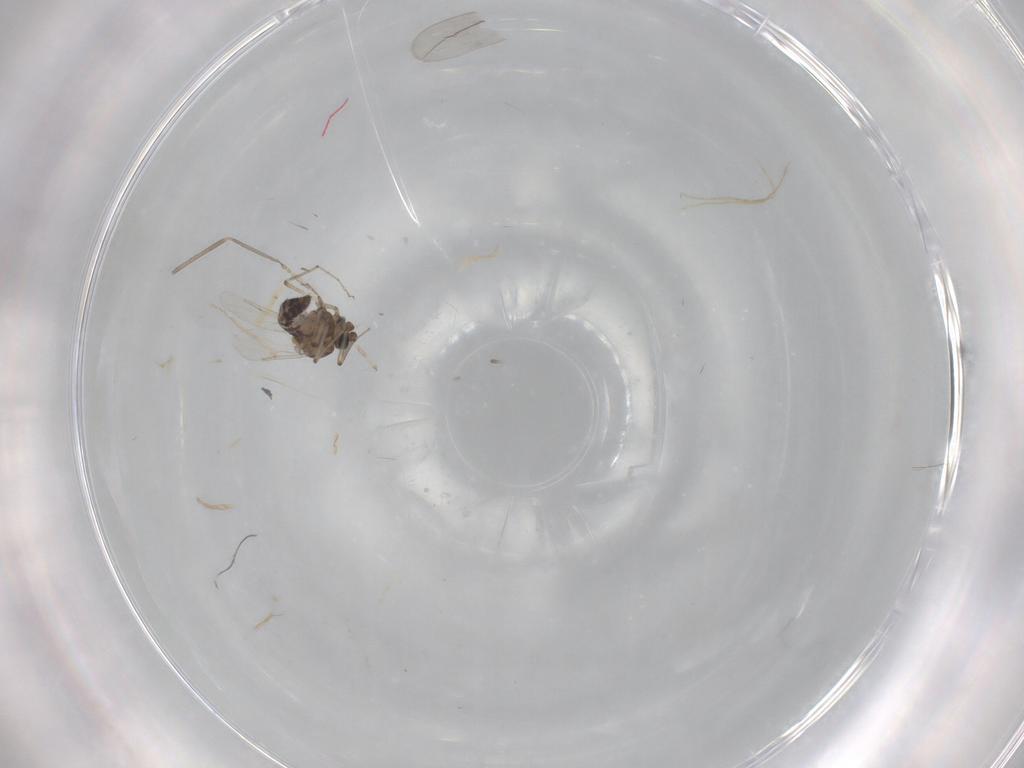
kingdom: Animalia
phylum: Arthropoda
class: Insecta
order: Diptera
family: Cecidomyiidae
